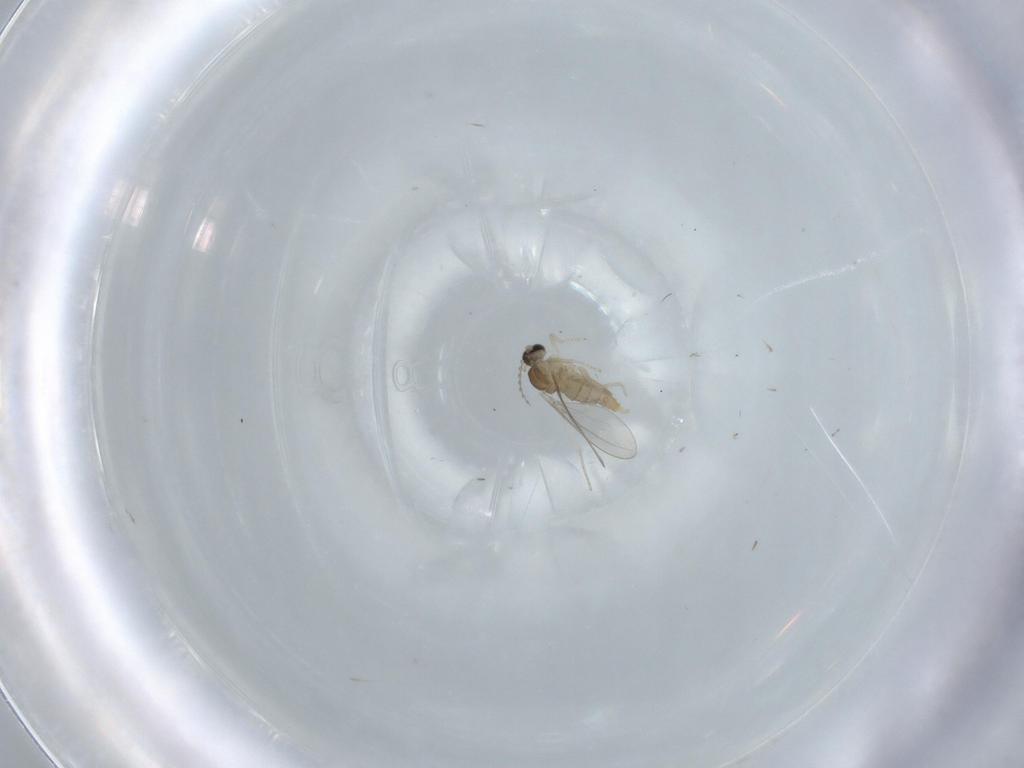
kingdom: Animalia
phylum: Arthropoda
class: Insecta
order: Diptera
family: Cecidomyiidae
